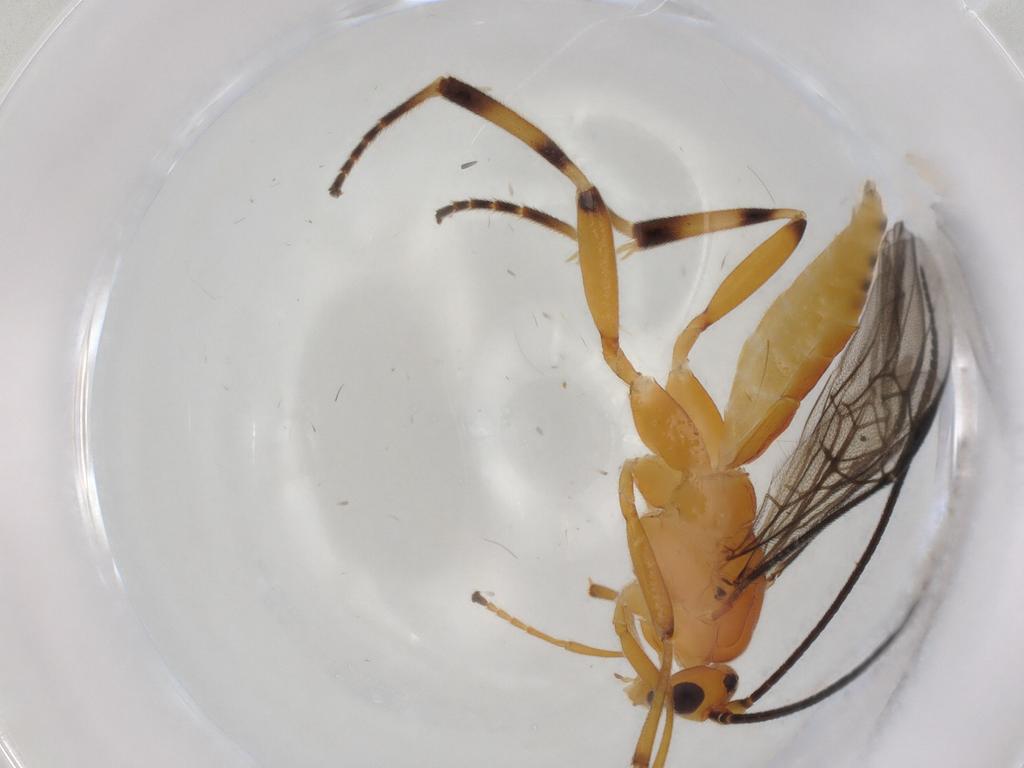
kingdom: Animalia
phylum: Arthropoda
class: Insecta
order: Hymenoptera
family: Braconidae
